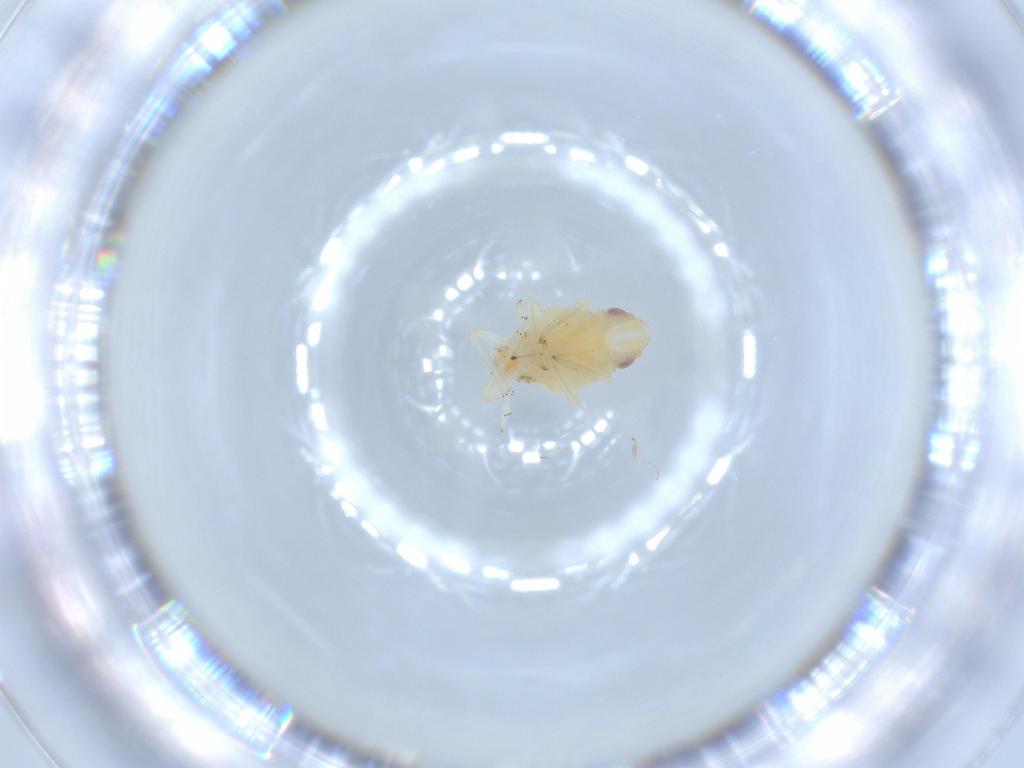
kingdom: Animalia
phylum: Arthropoda
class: Insecta
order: Hemiptera
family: Tropiduchidae
